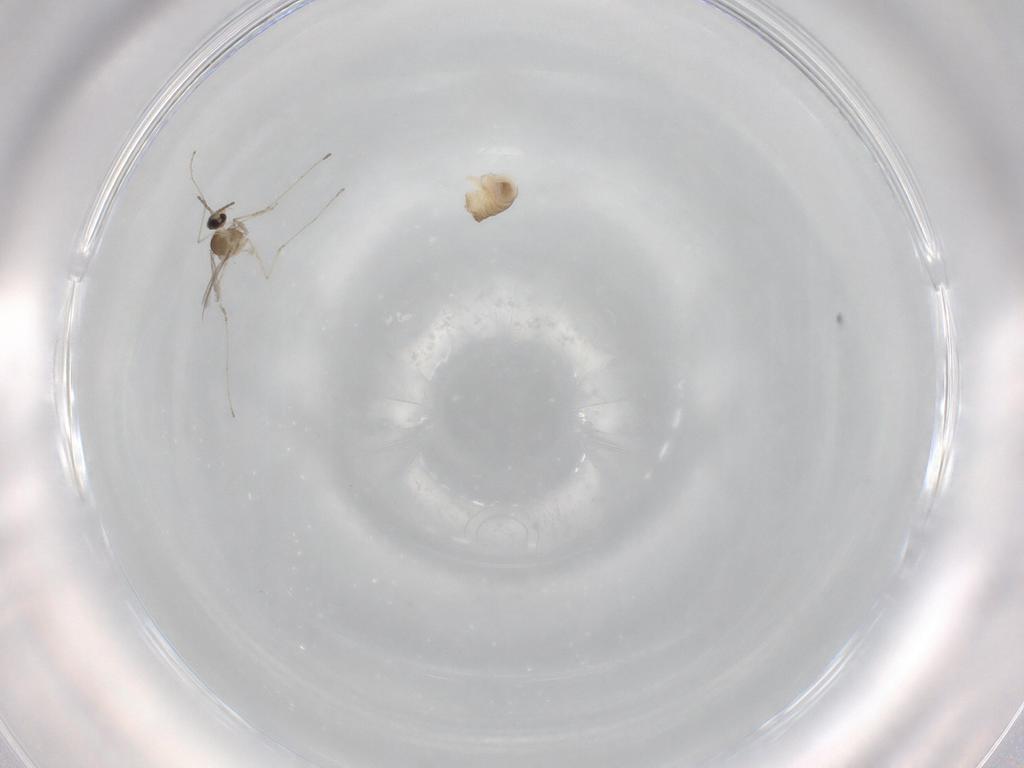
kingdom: Animalia
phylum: Arthropoda
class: Insecta
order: Diptera
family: Cecidomyiidae
